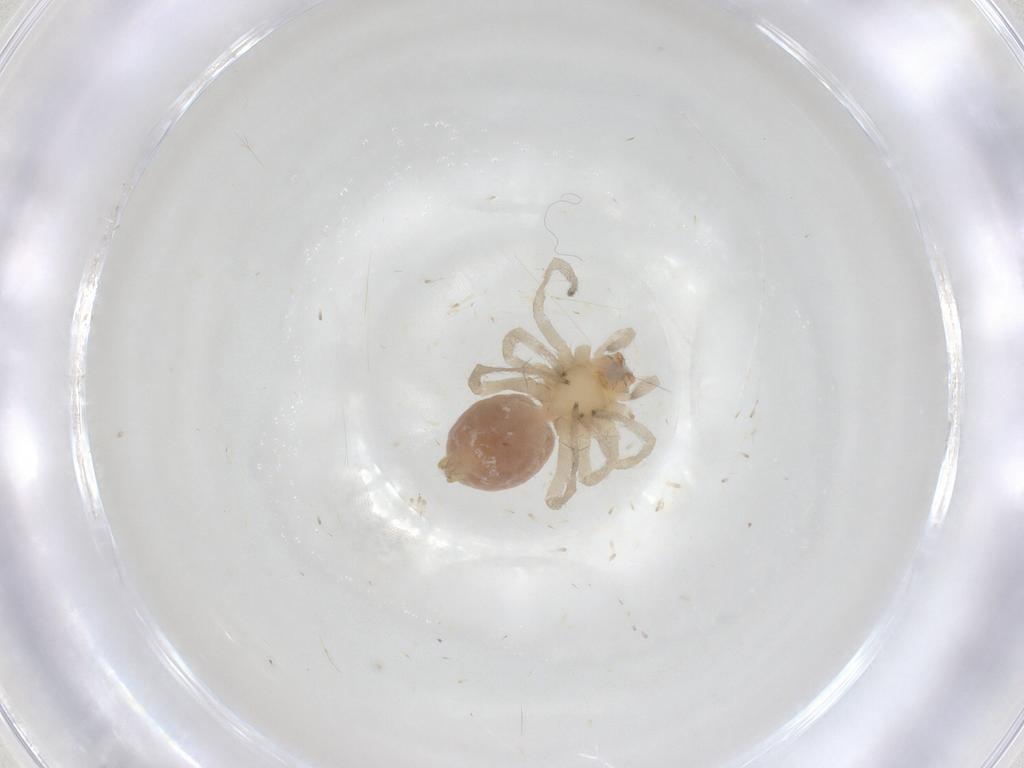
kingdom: Animalia
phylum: Arthropoda
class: Arachnida
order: Araneae
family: Cheiracanthiidae
